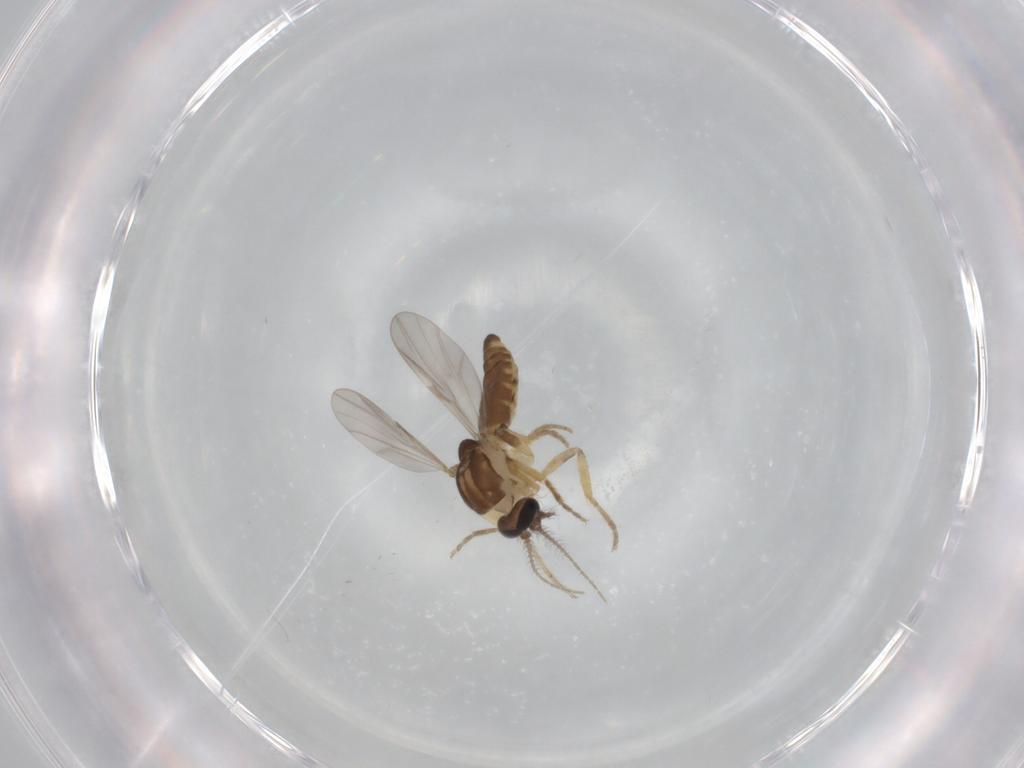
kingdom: Animalia
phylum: Arthropoda
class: Insecta
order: Diptera
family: Ceratopogonidae
